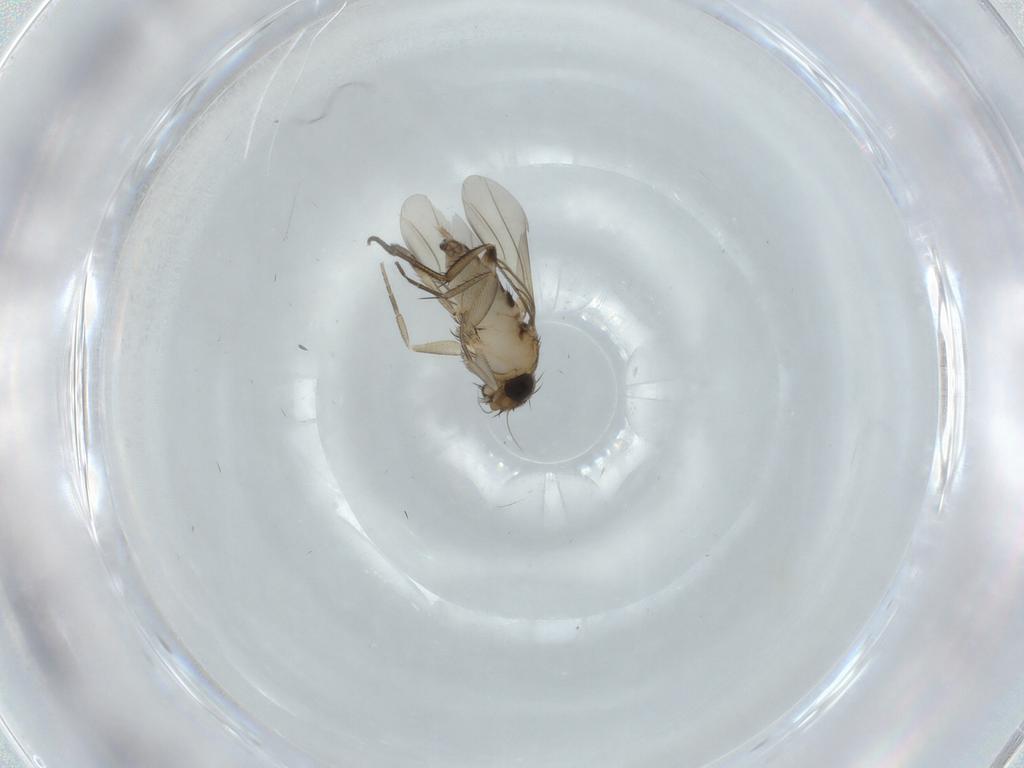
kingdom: Animalia
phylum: Arthropoda
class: Insecta
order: Diptera
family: Phoridae
